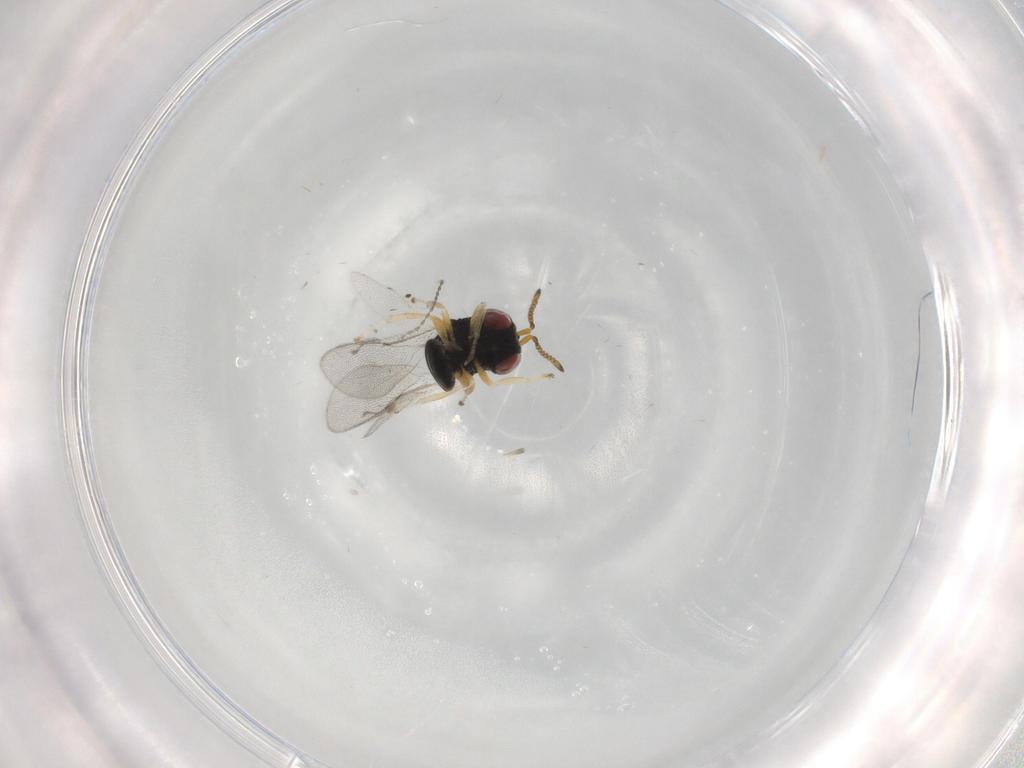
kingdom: Animalia
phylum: Arthropoda
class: Insecta
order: Hymenoptera
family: Eurytomidae
